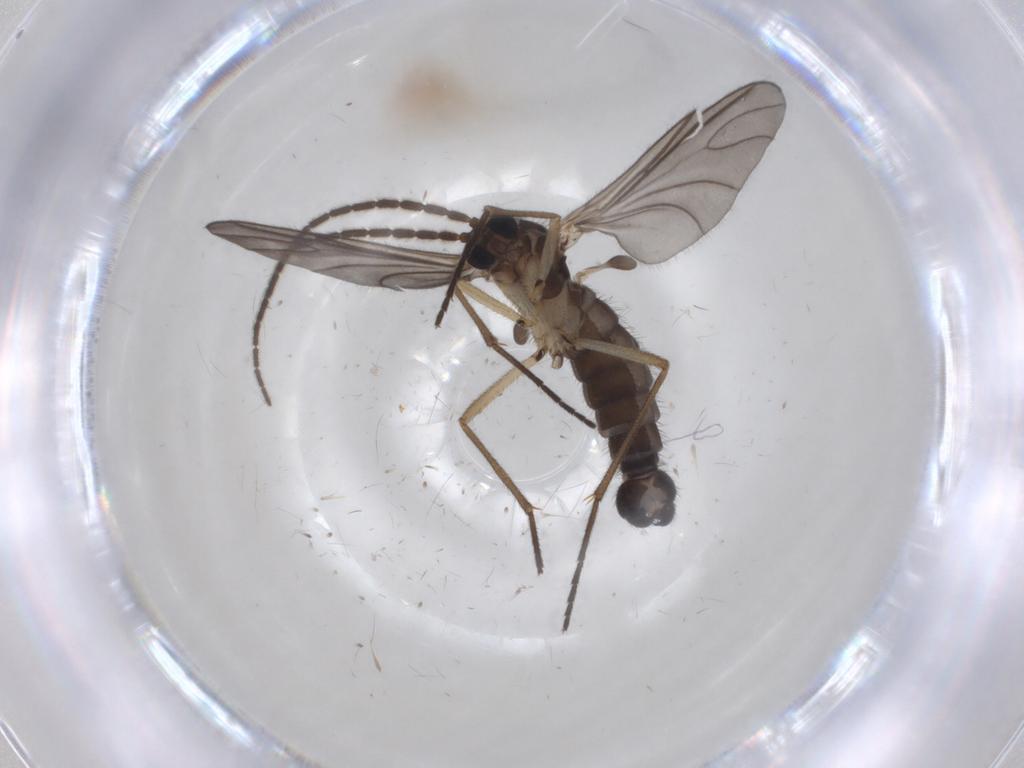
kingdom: Animalia
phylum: Arthropoda
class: Insecta
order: Diptera
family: Sciaridae
